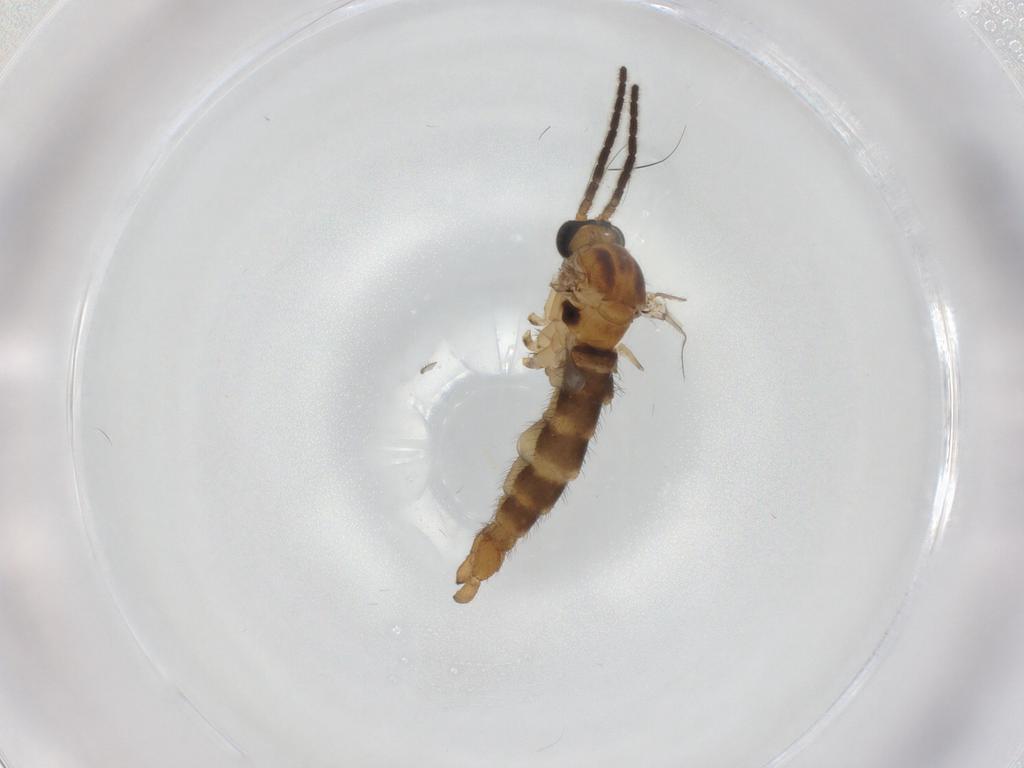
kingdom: Animalia
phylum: Arthropoda
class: Insecta
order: Diptera
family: Sciaridae
